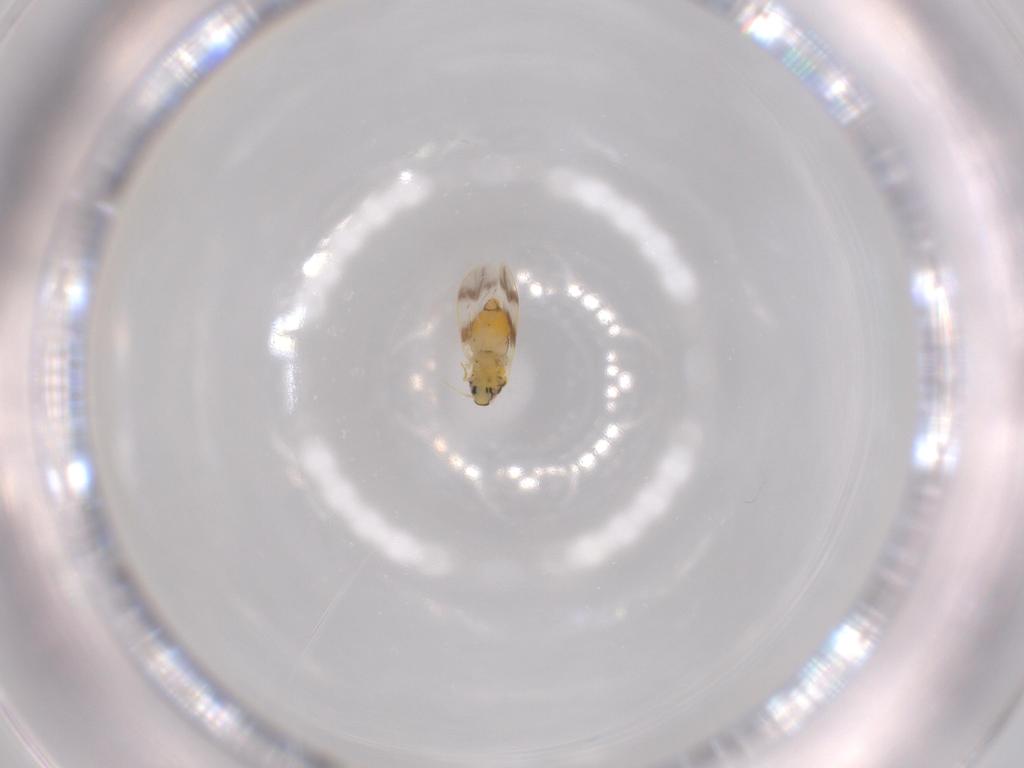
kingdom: Animalia
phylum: Arthropoda
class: Insecta
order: Hemiptera
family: Aleyrodidae
